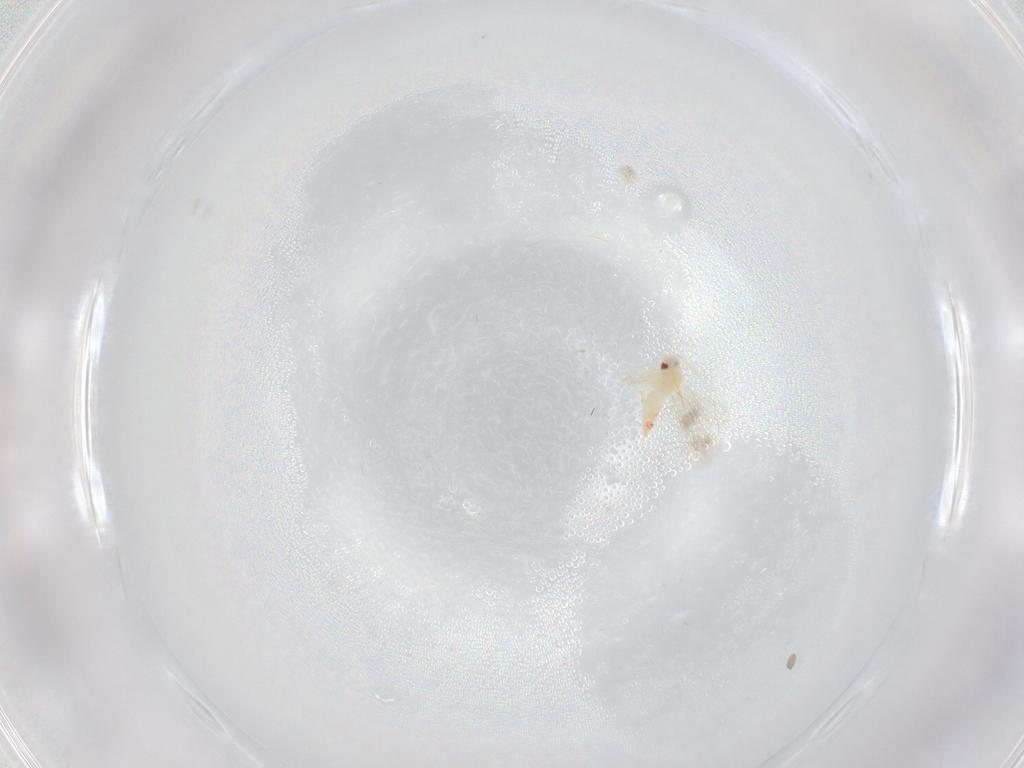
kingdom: Animalia
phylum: Arthropoda
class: Insecta
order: Hemiptera
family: Aleyrodidae
